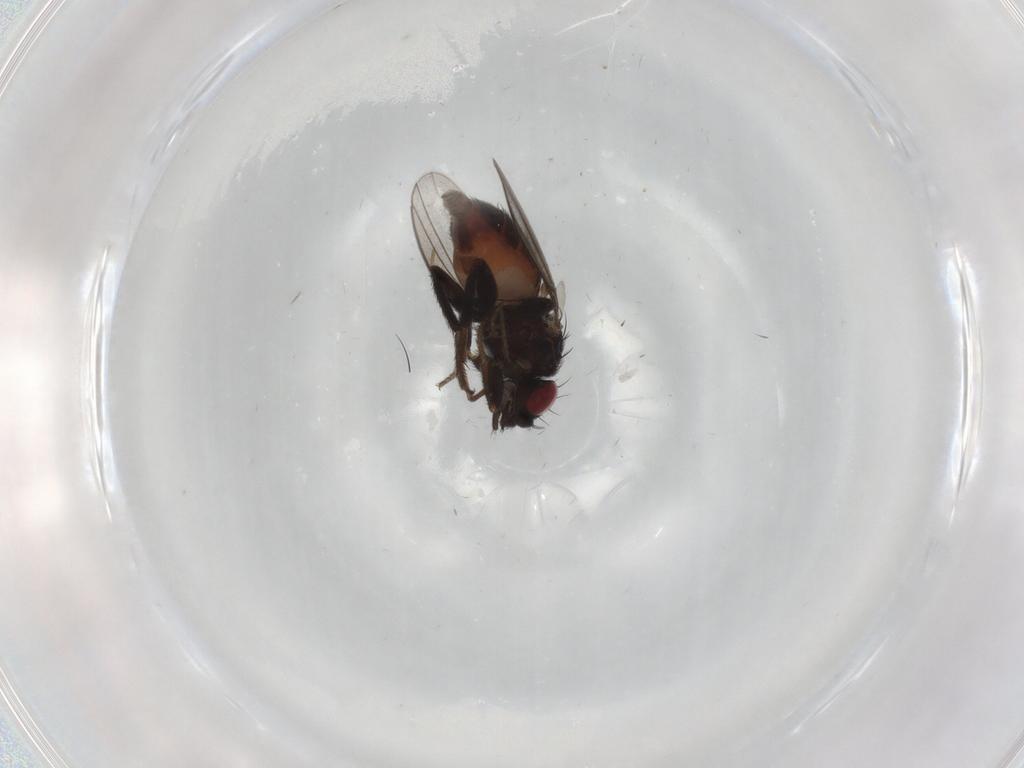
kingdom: Animalia
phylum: Arthropoda
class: Insecta
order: Diptera
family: Milichiidae
